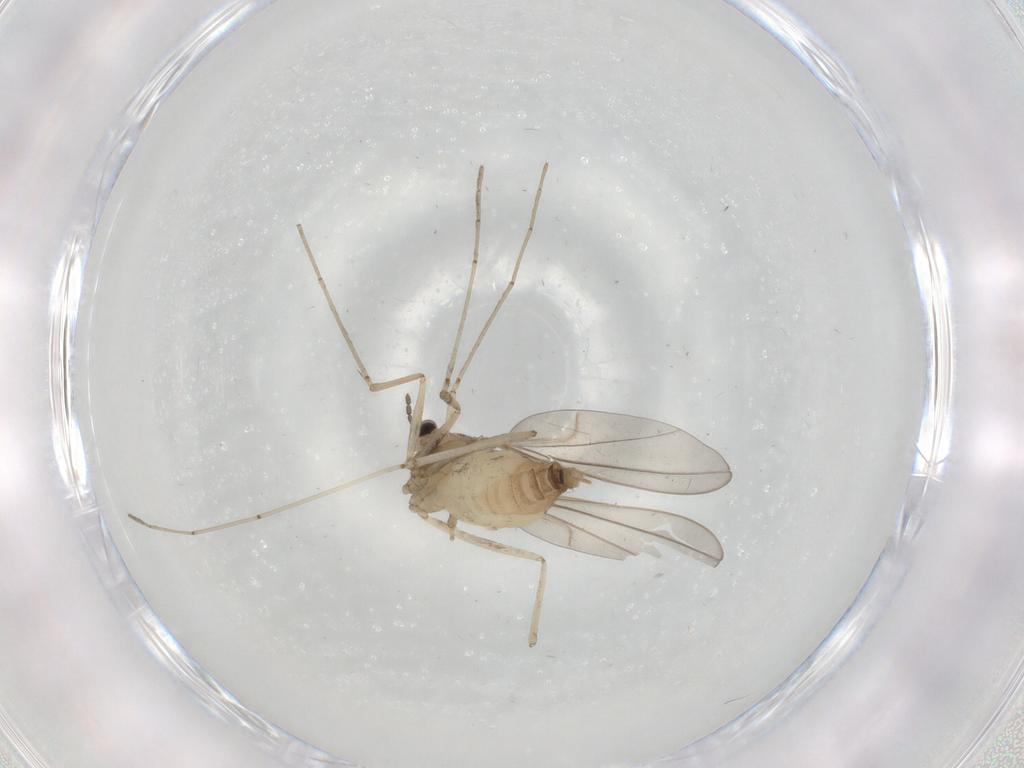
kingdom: Animalia
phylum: Arthropoda
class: Insecta
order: Diptera
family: Cecidomyiidae
